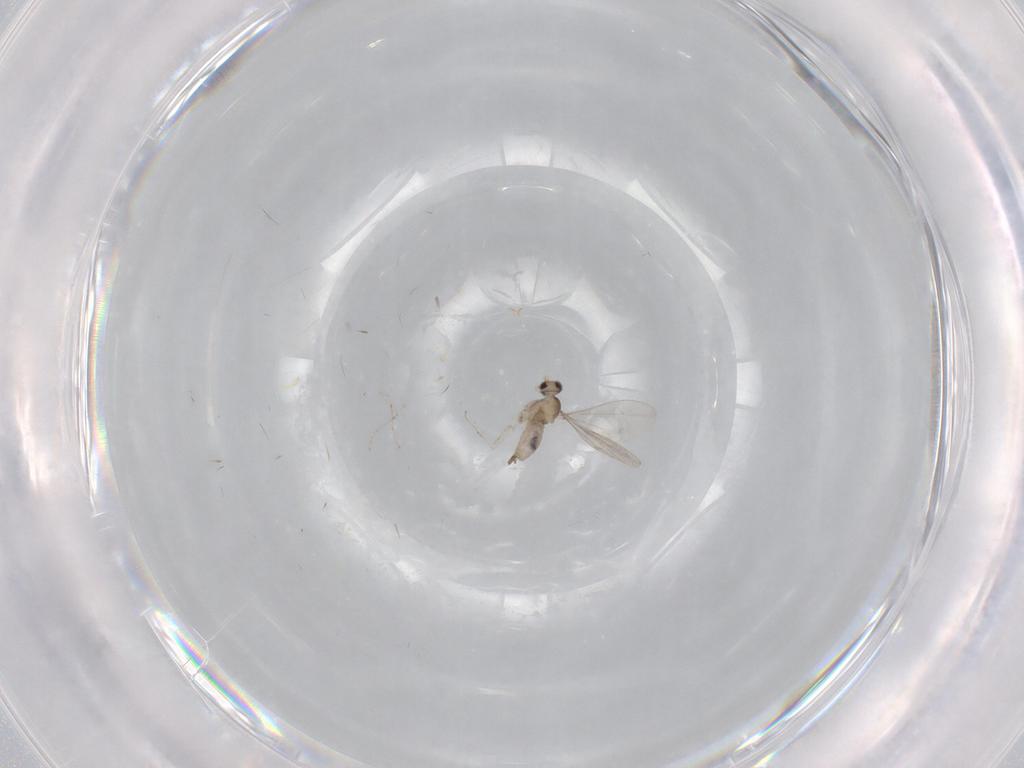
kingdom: Animalia
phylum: Arthropoda
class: Insecta
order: Diptera
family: Cecidomyiidae
